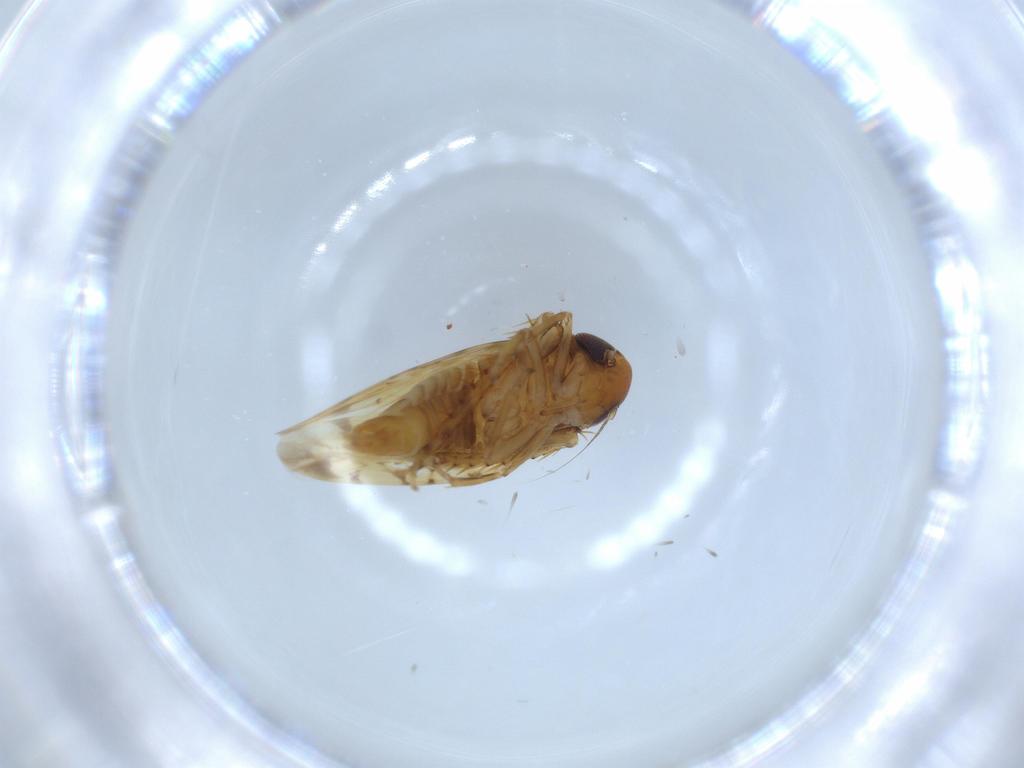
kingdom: Animalia
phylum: Arthropoda
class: Insecta
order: Hemiptera
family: Cicadellidae
